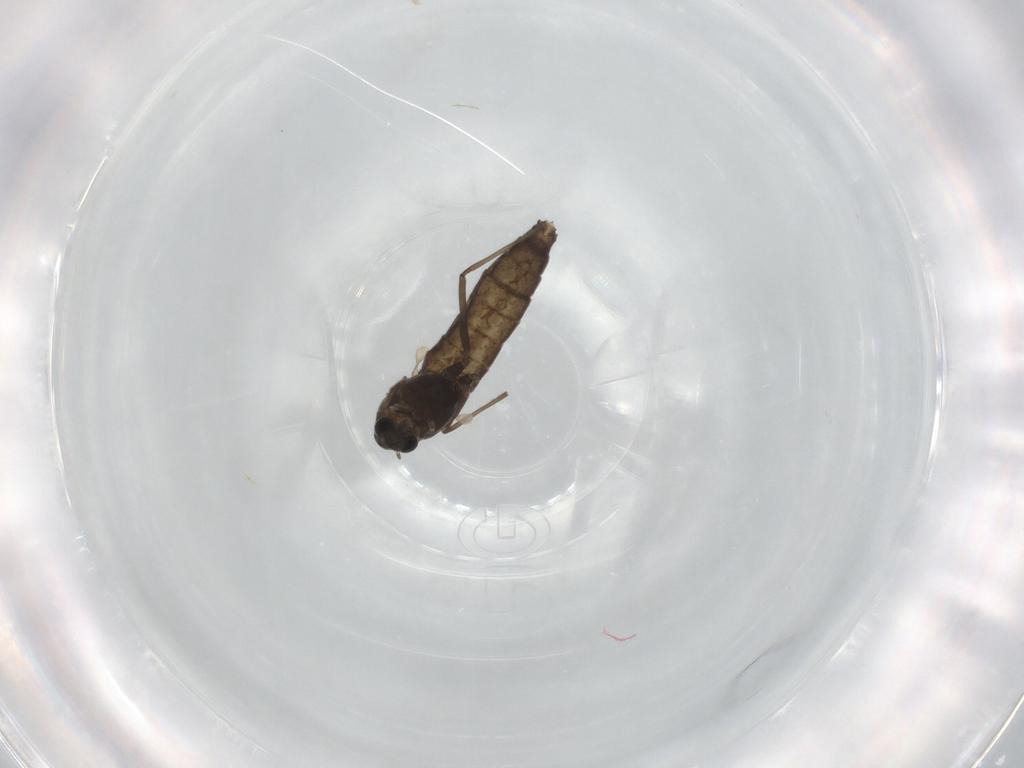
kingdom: Animalia
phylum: Arthropoda
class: Insecta
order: Diptera
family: Chironomidae
